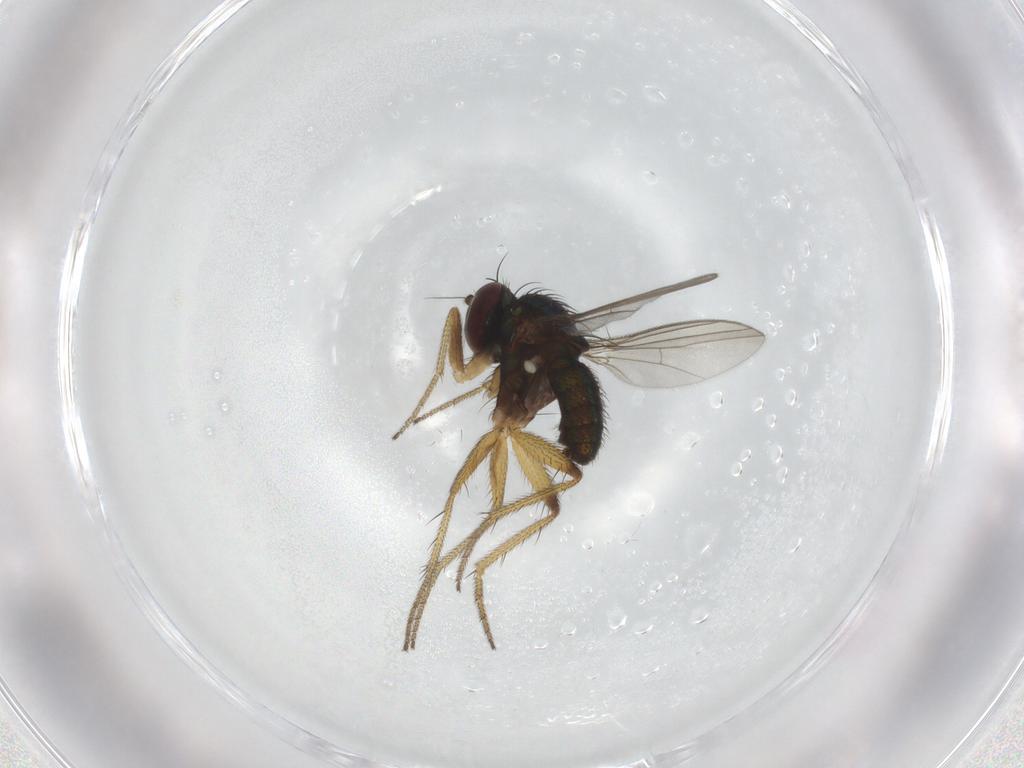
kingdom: Animalia
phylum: Arthropoda
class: Insecta
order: Diptera
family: Dolichopodidae
